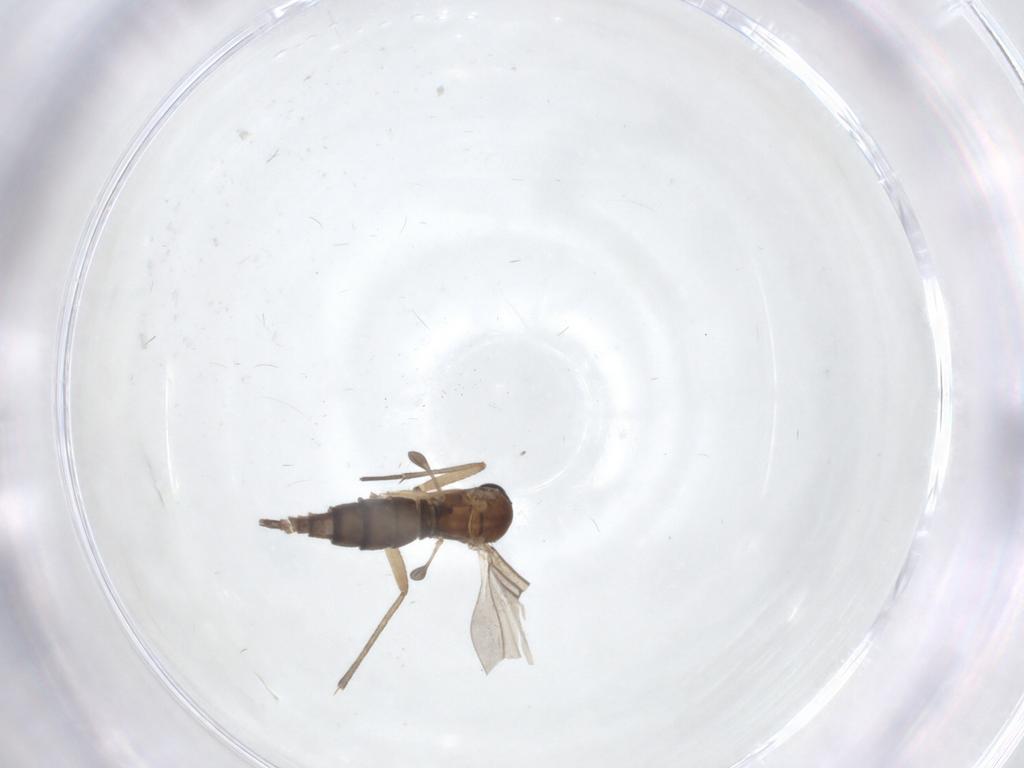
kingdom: Animalia
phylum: Arthropoda
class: Insecta
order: Diptera
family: Sciaridae
